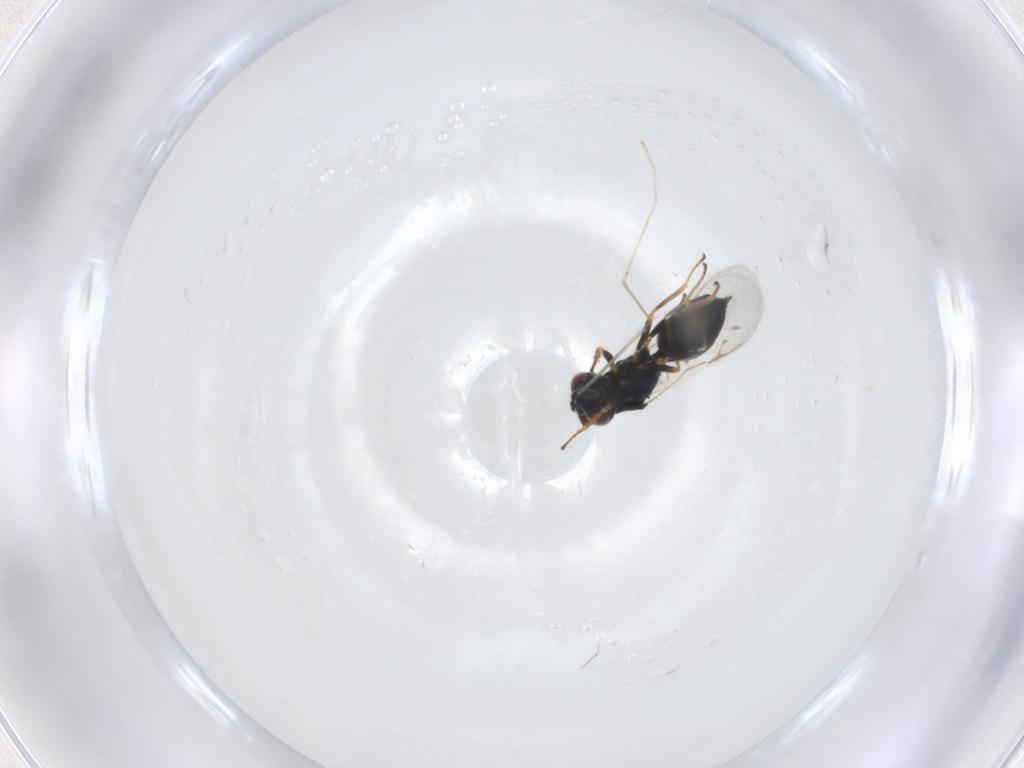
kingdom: Animalia
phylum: Arthropoda
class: Insecta
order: Hymenoptera
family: Chalcidoidea_incertae_sedis
